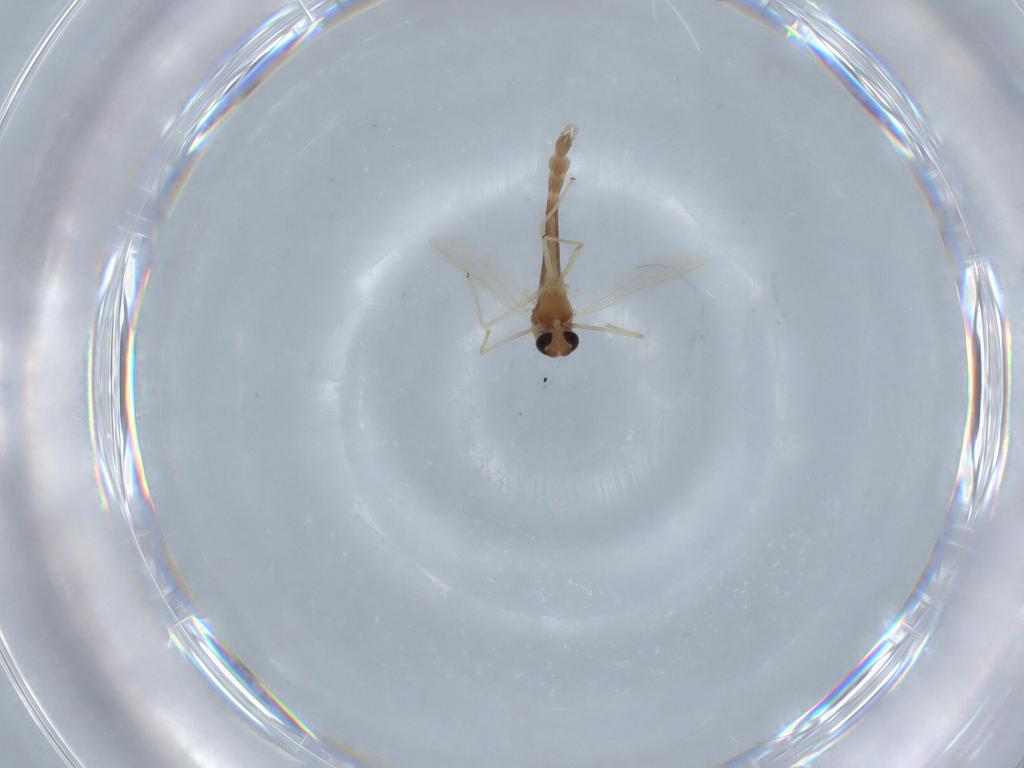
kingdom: Animalia
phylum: Arthropoda
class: Insecta
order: Diptera
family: Chironomidae
